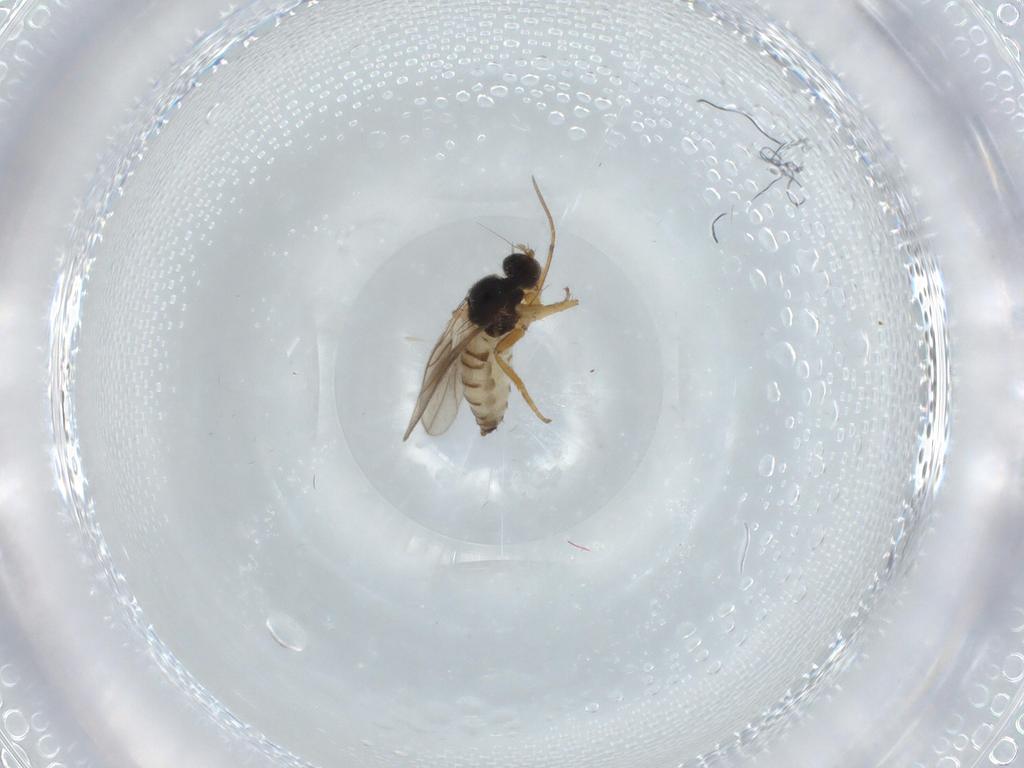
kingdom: Animalia
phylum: Arthropoda
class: Insecta
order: Diptera
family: Hybotidae
